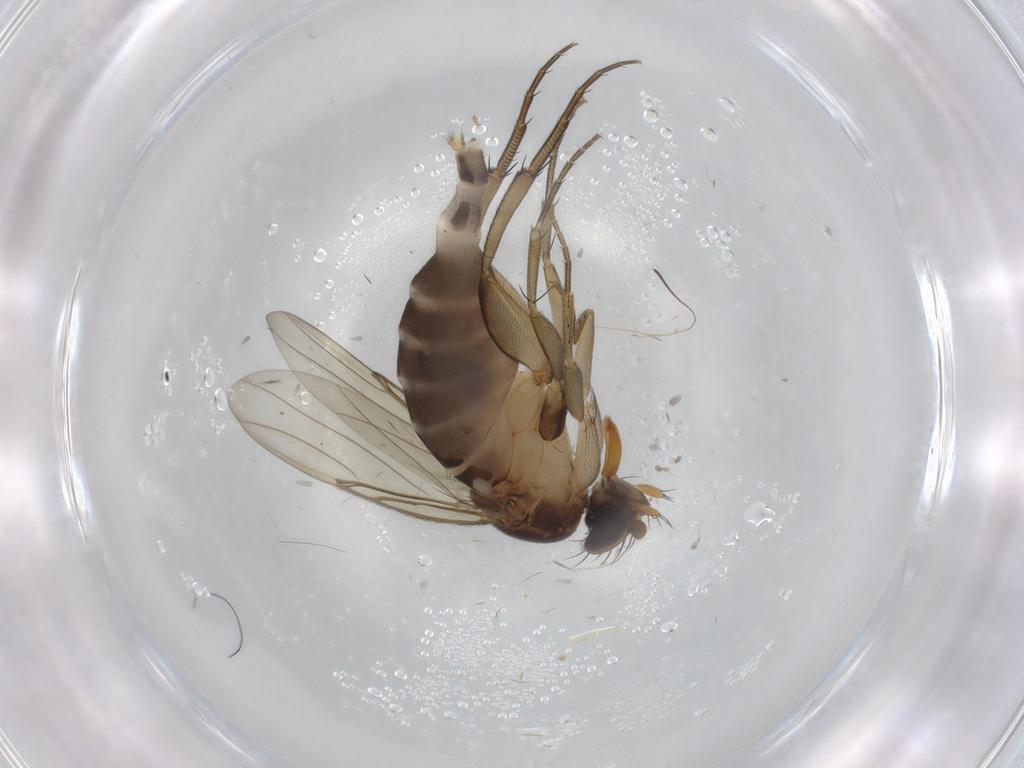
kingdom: Animalia
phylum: Arthropoda
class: Insecta
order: Diptera
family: Phoridae
